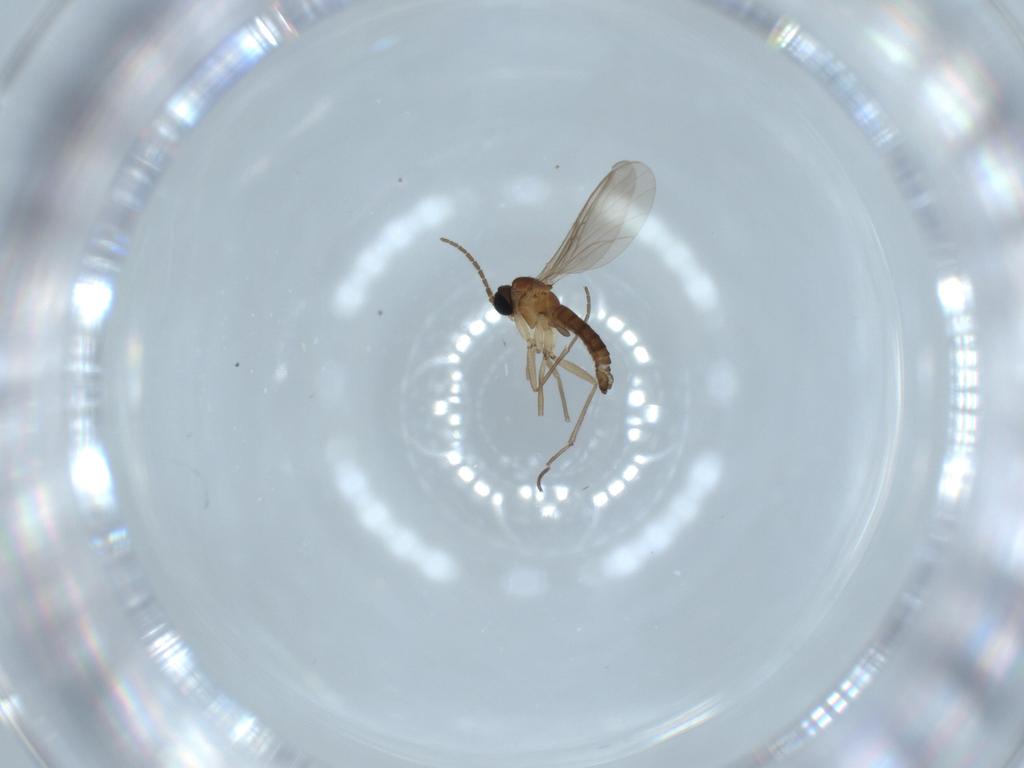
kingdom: Animalia
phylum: Arthropoda
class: Insecta
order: Diptera
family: Sciaridae
